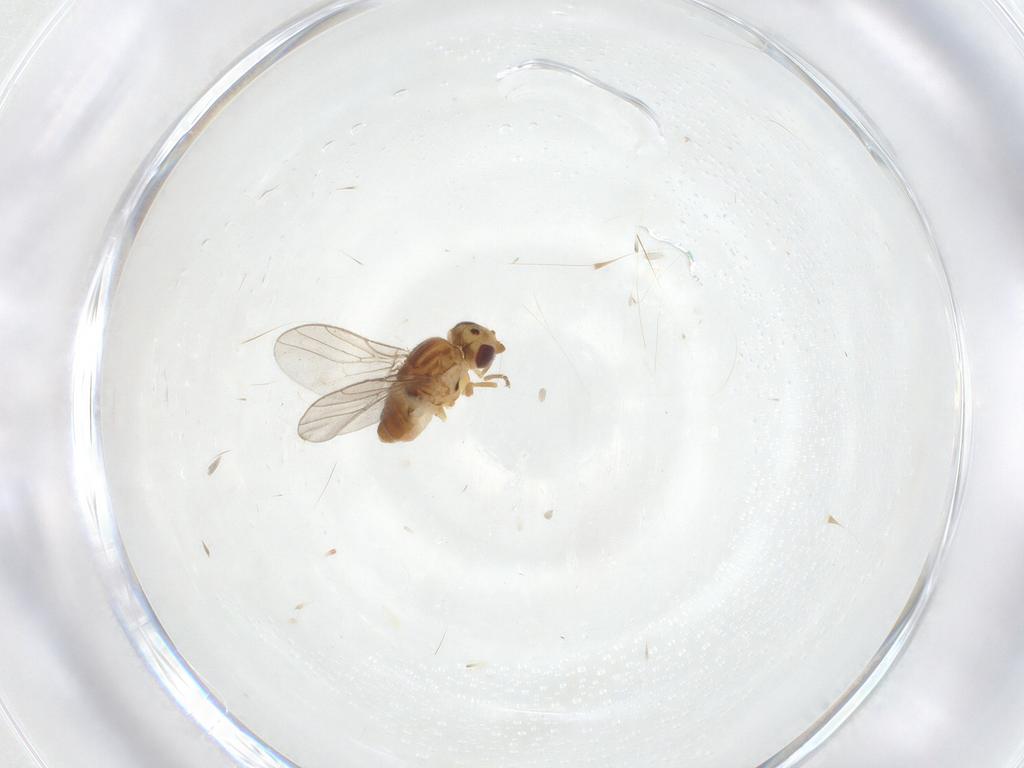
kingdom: Animalia
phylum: Arthropoda
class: Insecta
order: Diptera
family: Chloropidae
